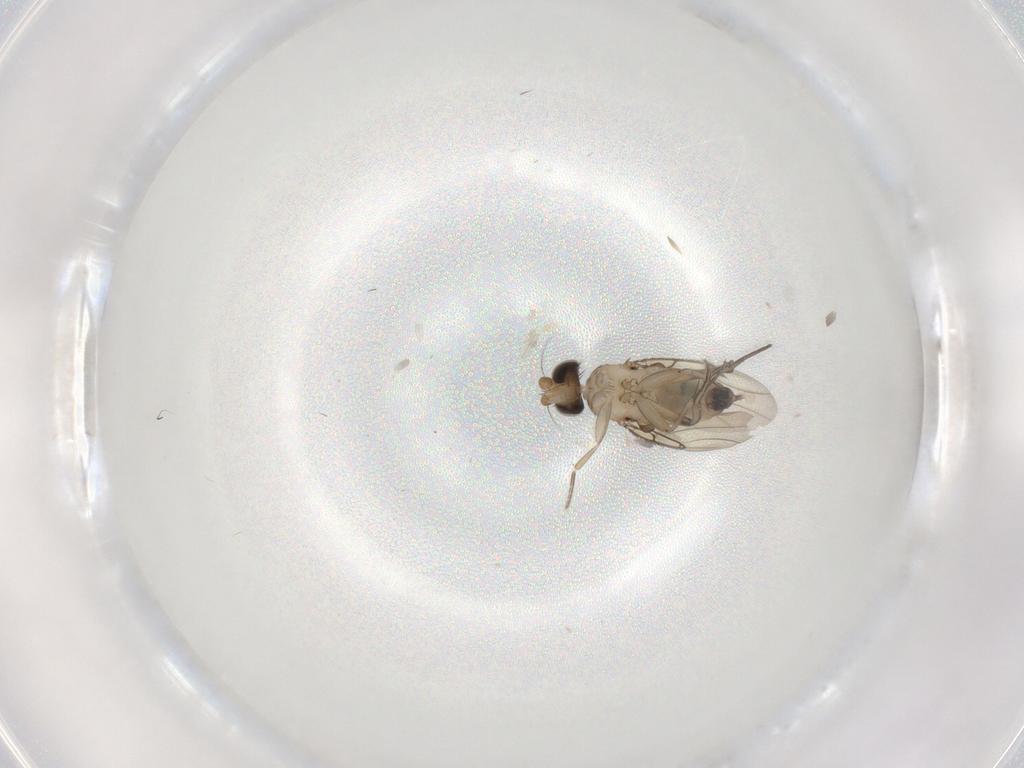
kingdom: Animalia
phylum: Arthropoda
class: Insecta
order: Diptera
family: Phoridae
